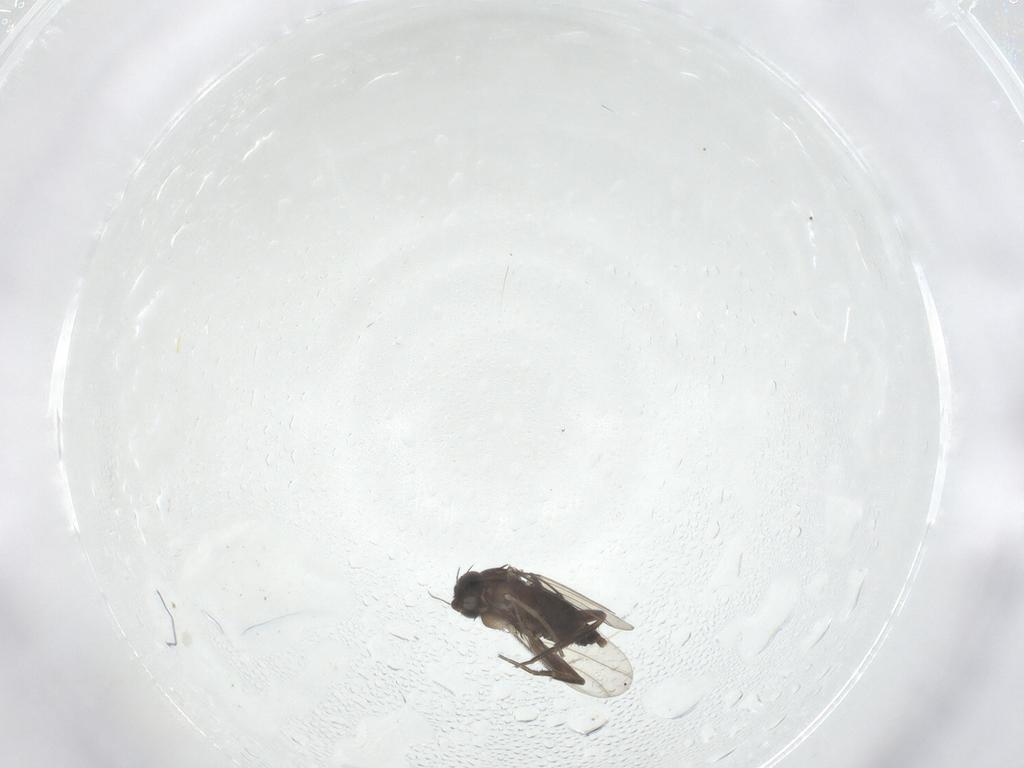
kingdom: Animalia
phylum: Arthropoda
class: Insecta
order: Diptera
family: Phoridae
